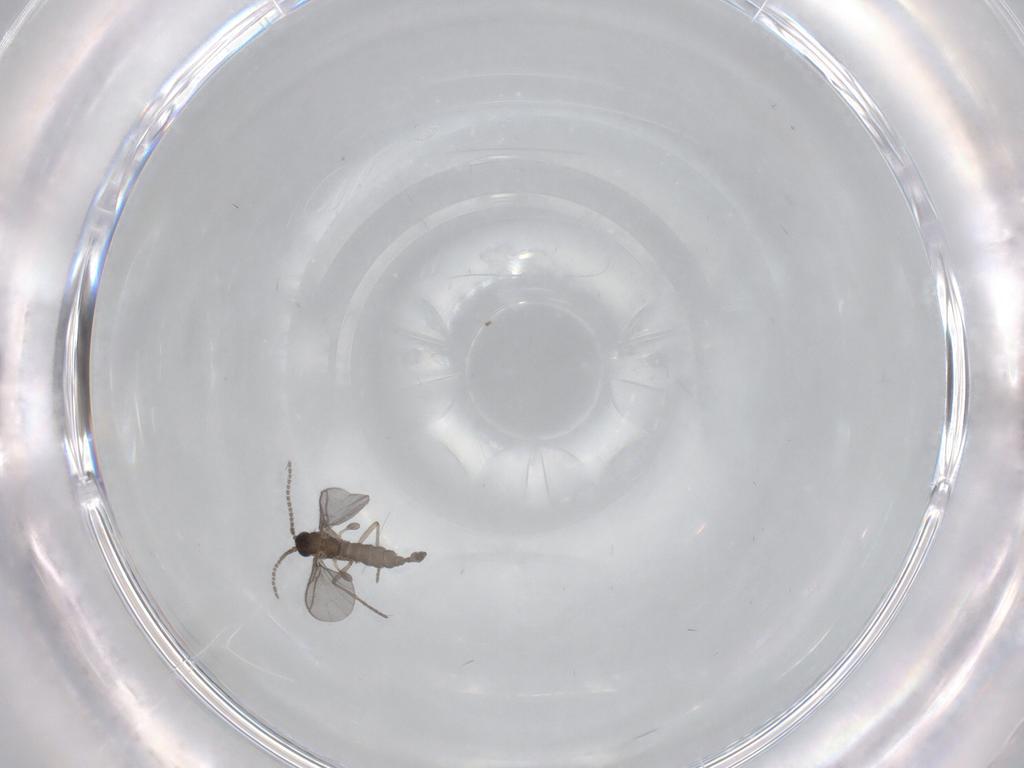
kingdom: Animalia
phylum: Arthropoda
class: Insecta
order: Diptera
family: Sciaridae
